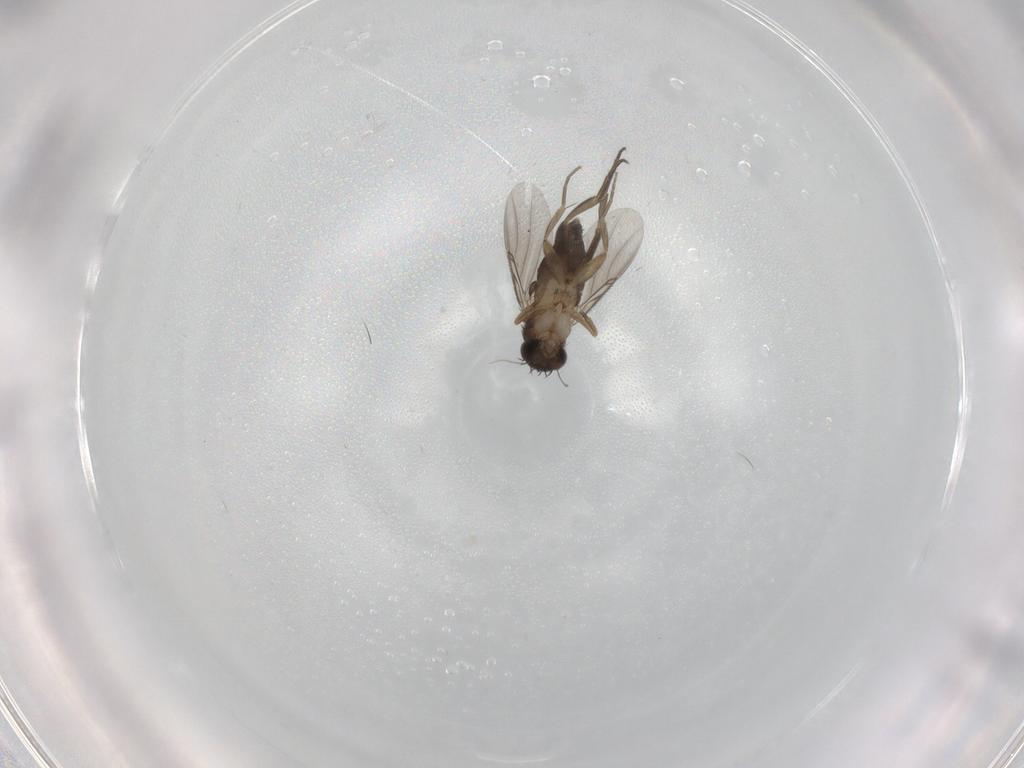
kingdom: Animalia
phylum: Arthropoda
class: Insecta
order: Diptera
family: Phoridae
